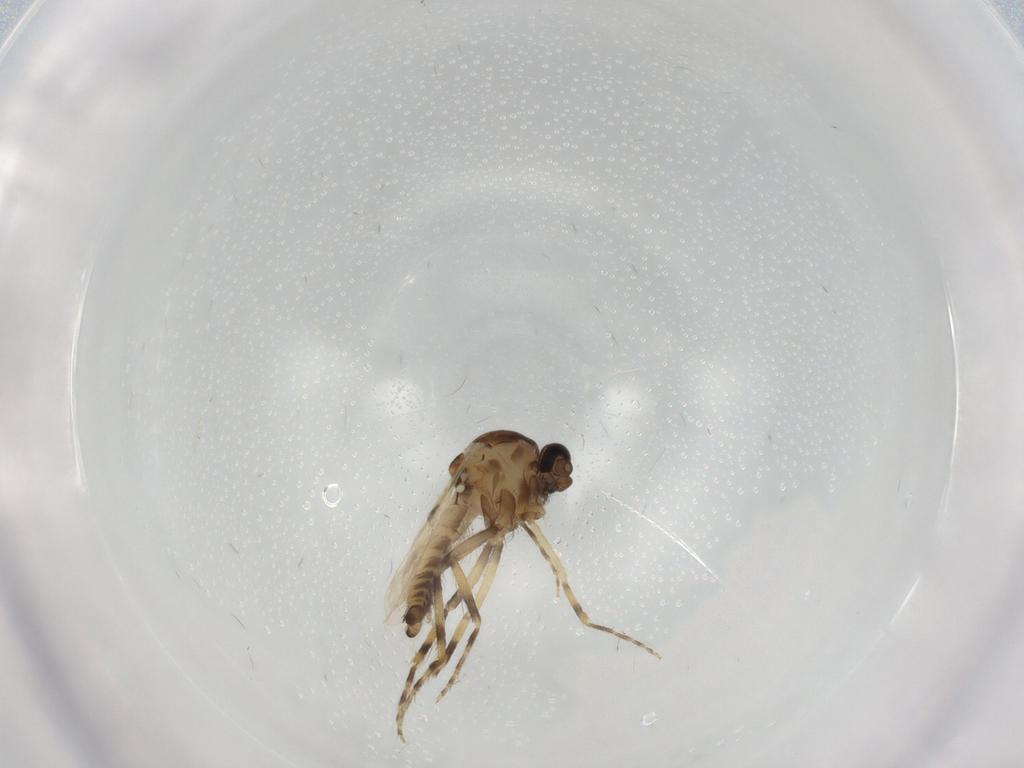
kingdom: Animalia
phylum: Arthropoda
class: Insecta
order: Diptera
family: Ceratopogonidae
